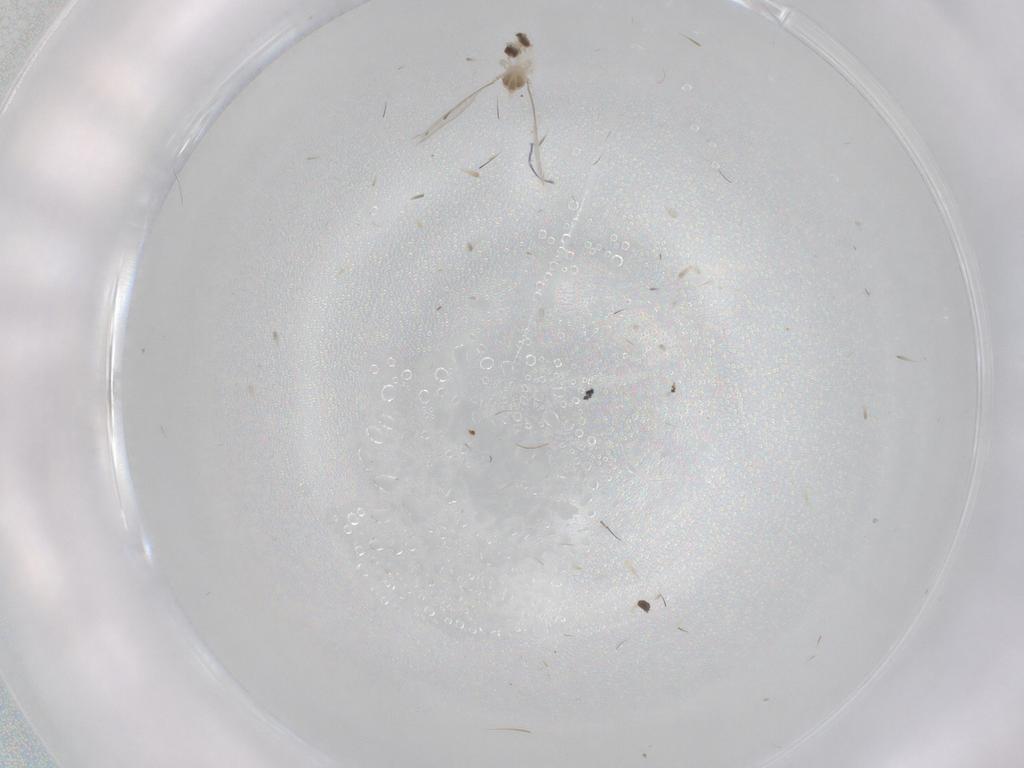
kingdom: Animalia
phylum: Arthropoda
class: Insecta
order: Diptera
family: Cecidomyiidae
